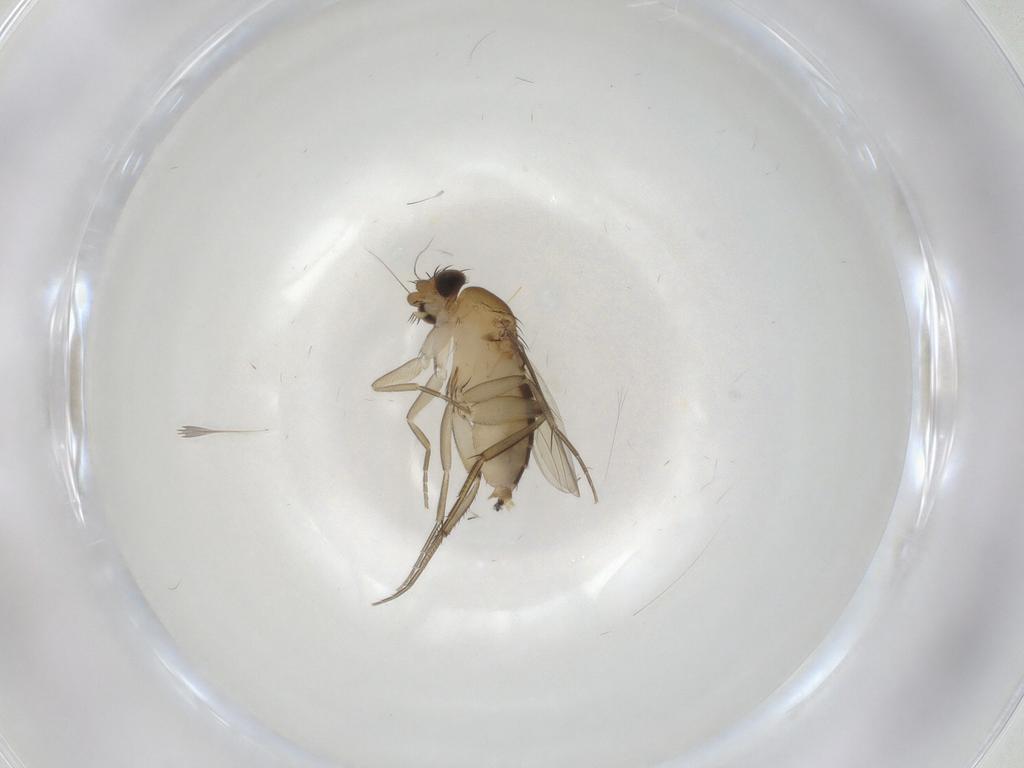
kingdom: Animalia
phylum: Arthropoda
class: Insecta
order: Diptera
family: Phoridae
